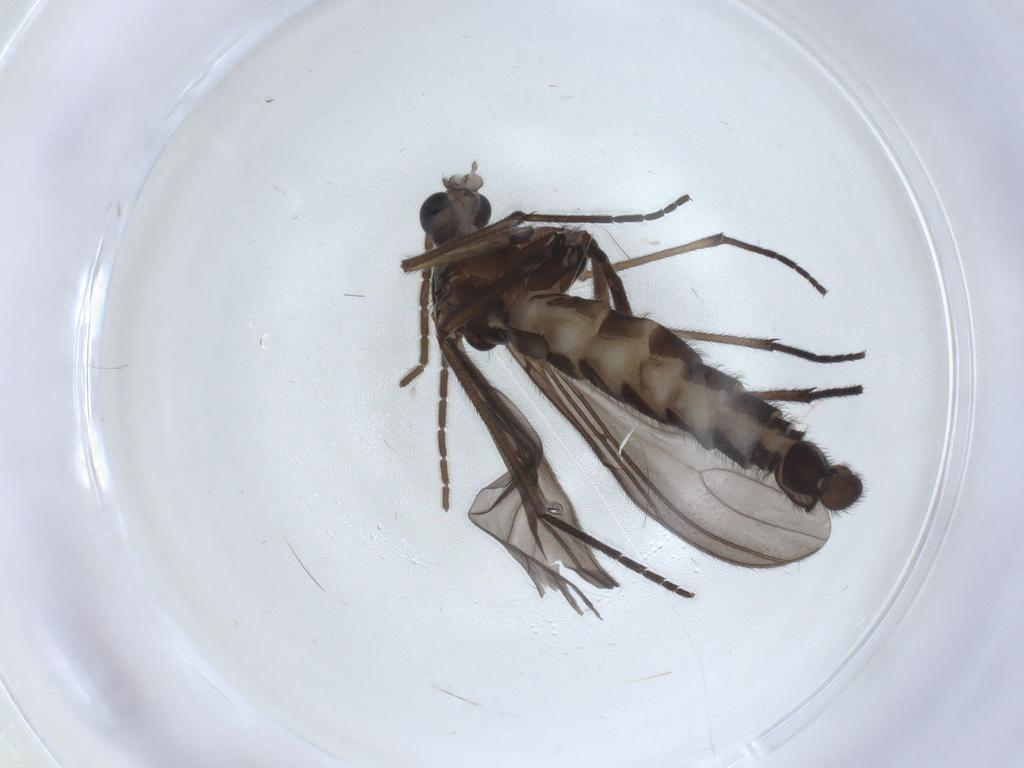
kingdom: Animalia
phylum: Arthropoda
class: Insecta
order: Diptera
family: Sciaridae
